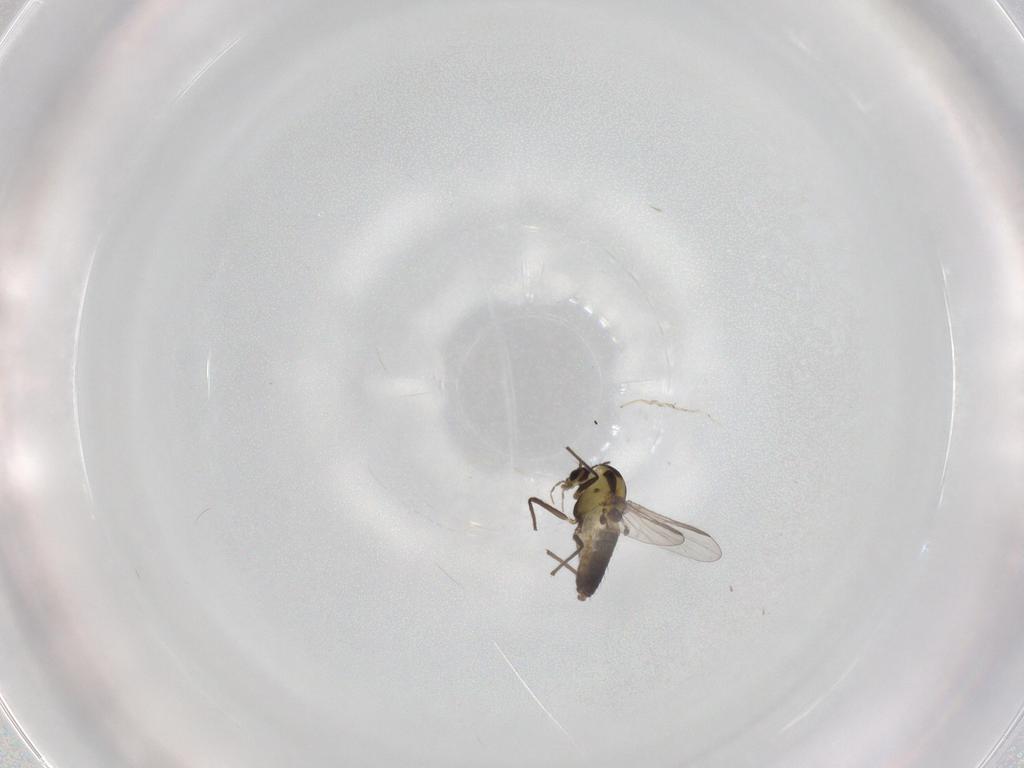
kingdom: Animalia
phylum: Arthropoda
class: Insecta
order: Diptera
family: Chironomidae
